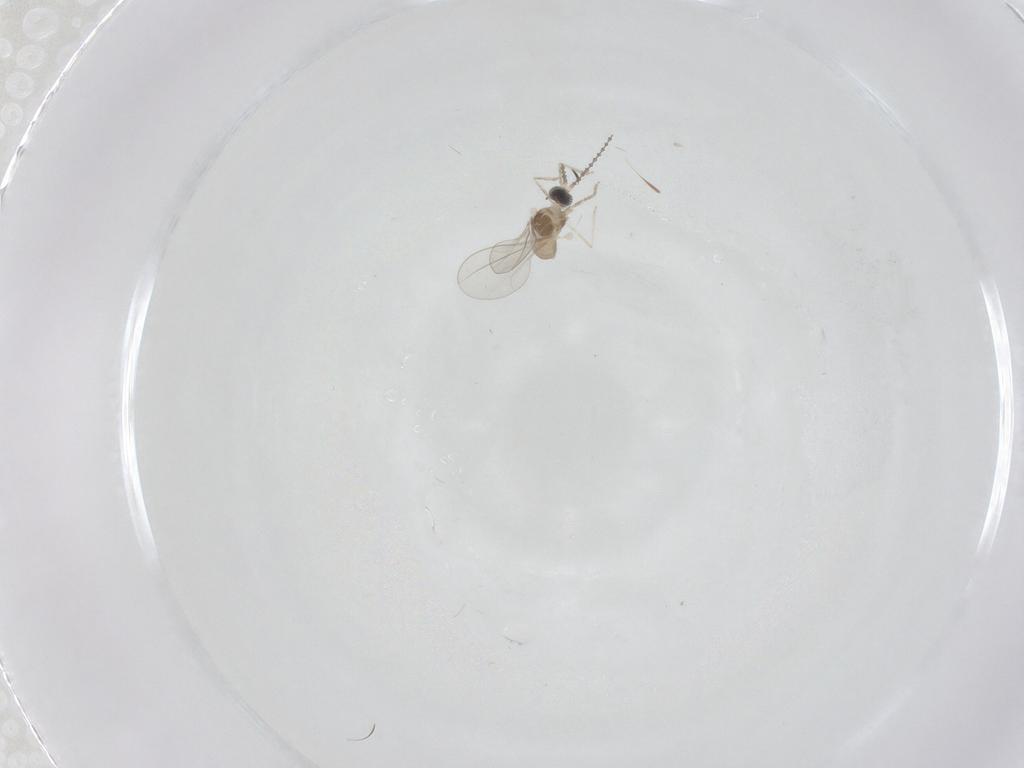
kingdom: Animalia
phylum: Arthropoda
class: Insecta
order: Diptera
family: Cecidomyiidae
